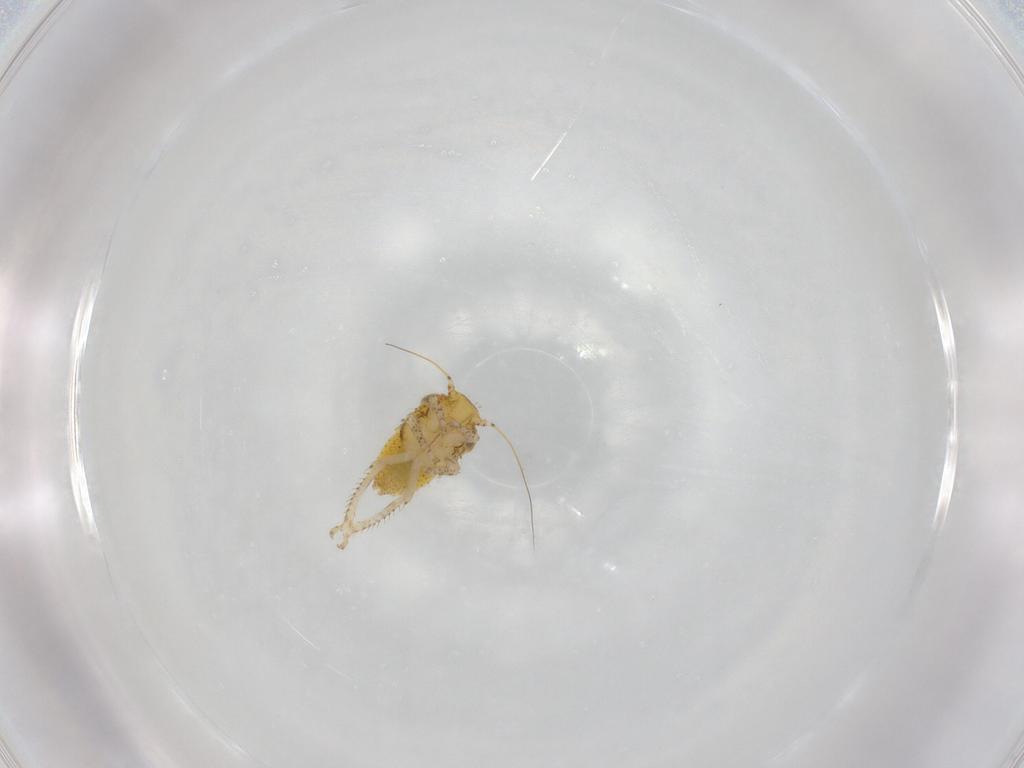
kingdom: Animalia
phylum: Arthropoda
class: Insecta
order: Hemiptera
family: Cicadellidae
